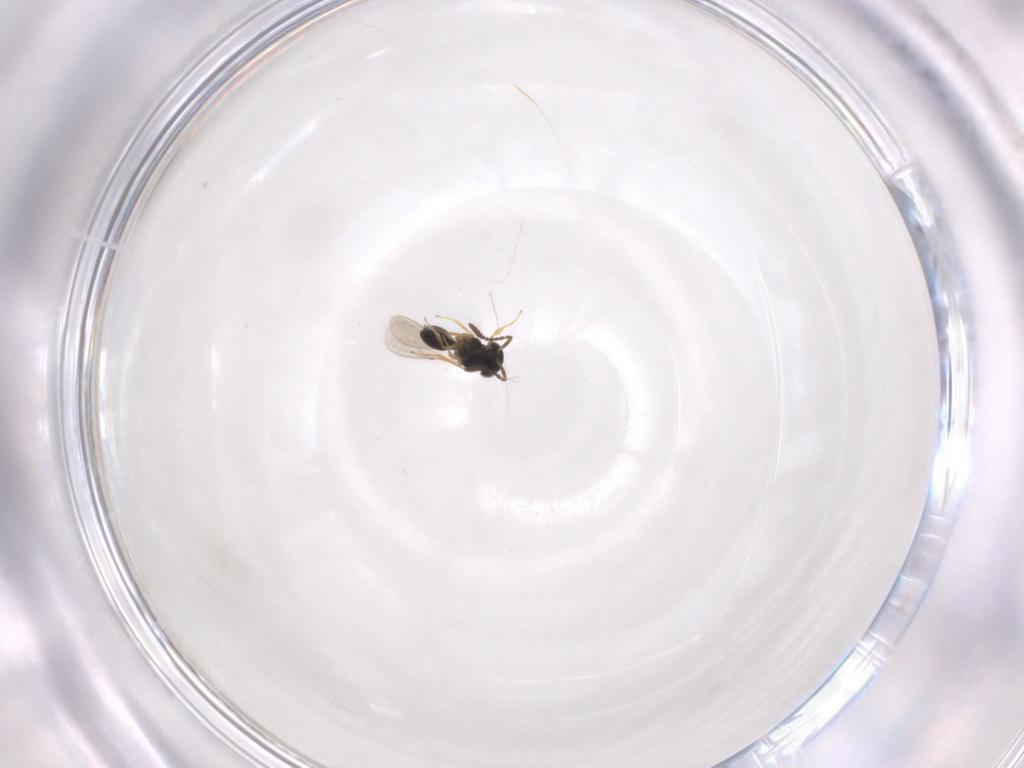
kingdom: Animalia
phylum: Arthropoda
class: Insecta
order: Hymenoptera
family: Scelionidae
